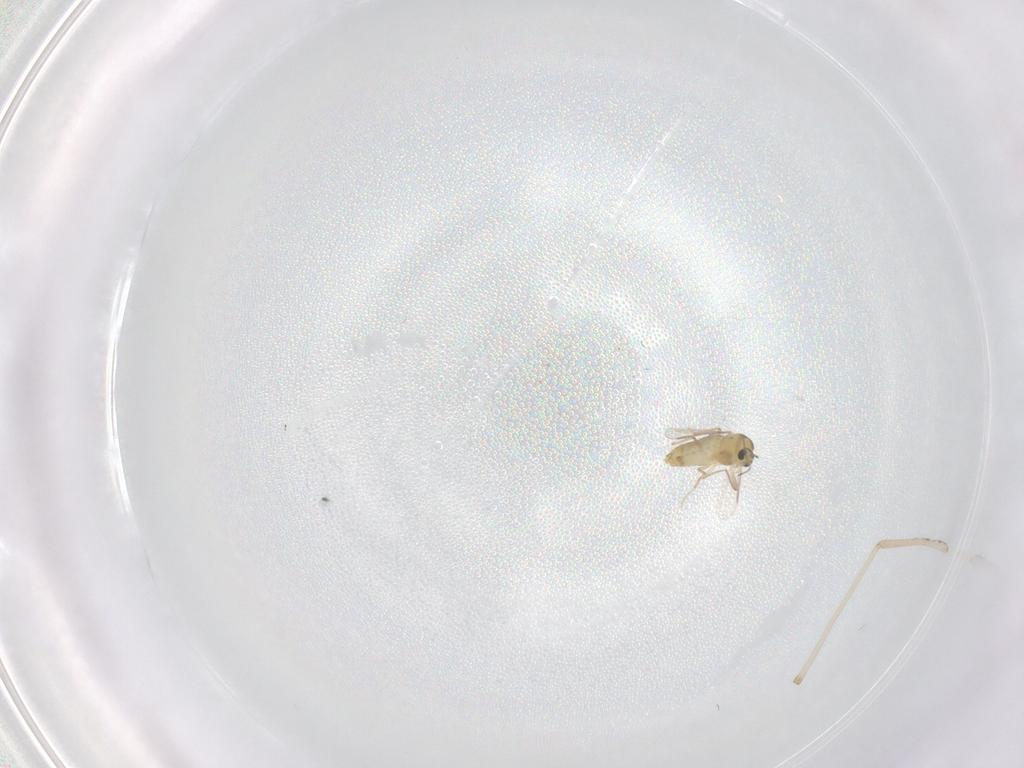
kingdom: Animalia
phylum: Arthropoda
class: Insecta
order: Diptera
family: Chironomidae
